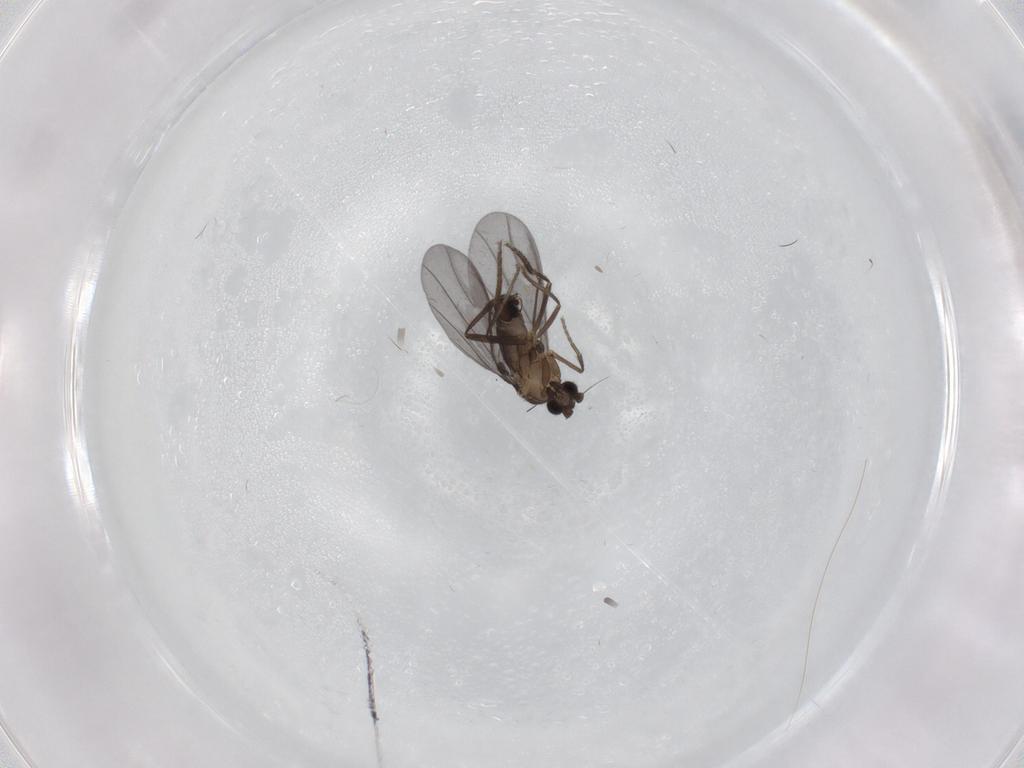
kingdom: Animalia
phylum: Arthropoda
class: Insecta
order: Diptera
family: Phoridae
